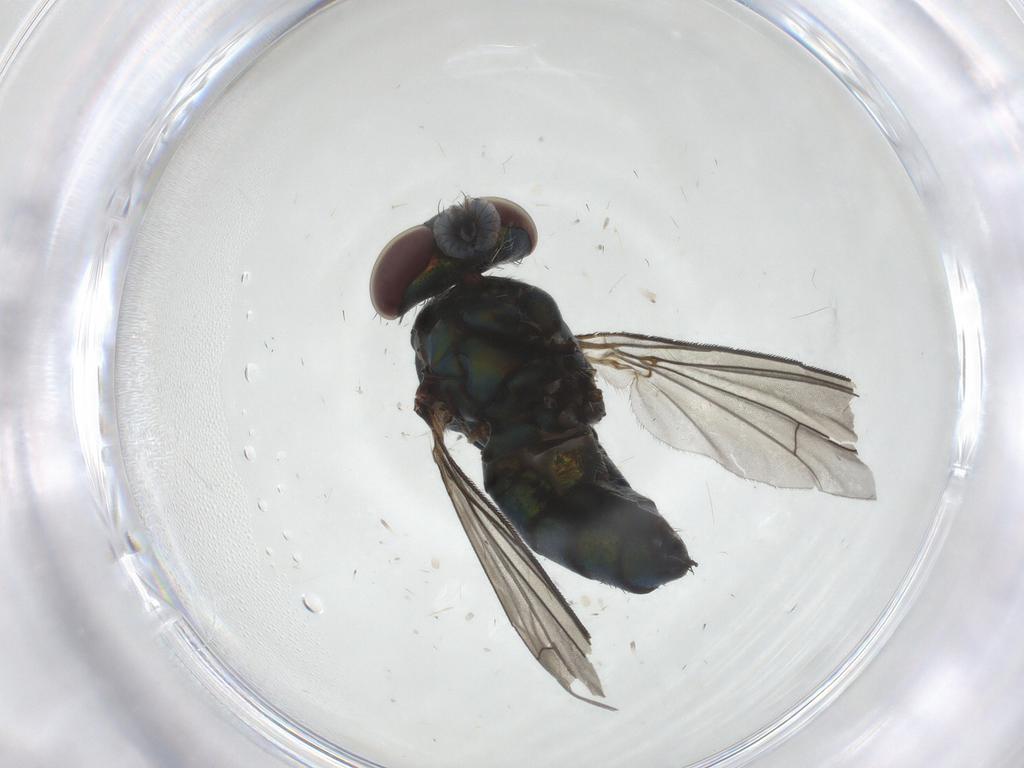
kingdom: Animalia
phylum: Arthropoda
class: Insecta
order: Diptera
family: Dolichopodidae
